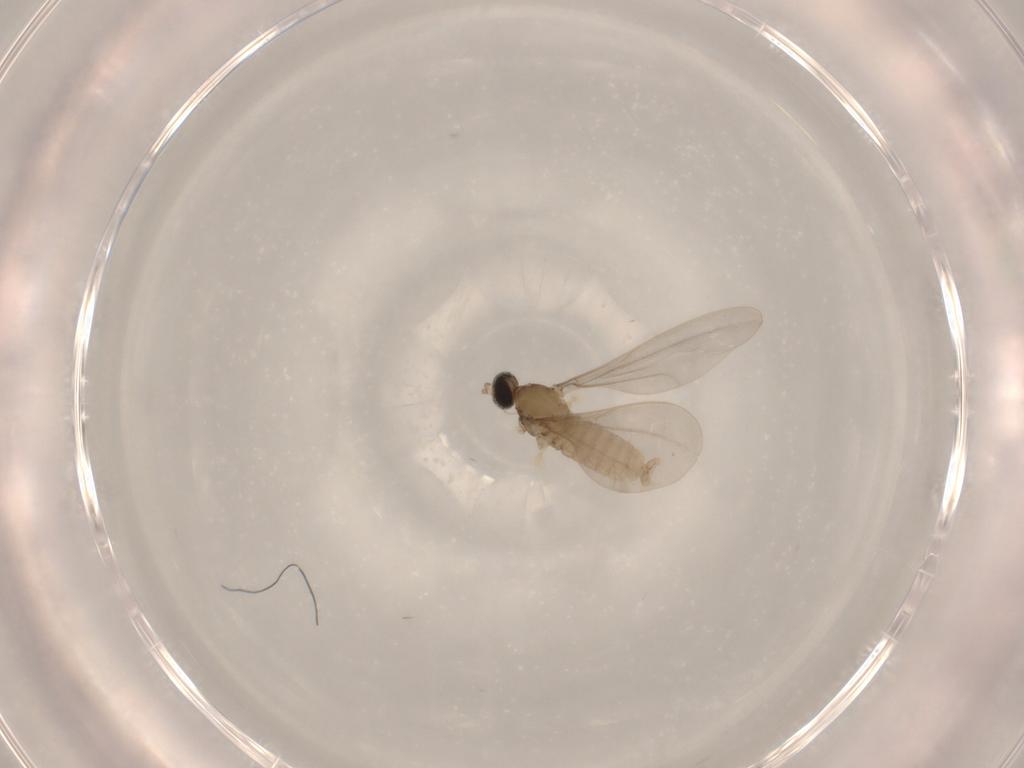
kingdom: Animalia
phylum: Arthropoda
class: Insecta
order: Diptera
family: Cecidomyiidae
